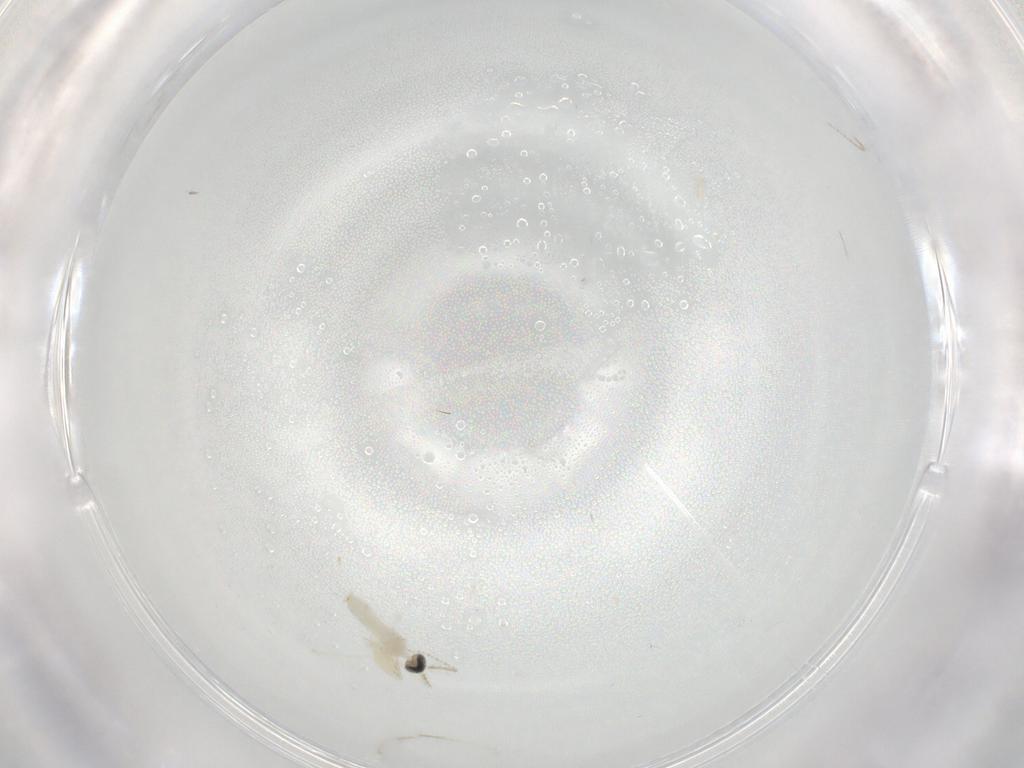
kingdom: Animalia
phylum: Arthropoda
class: Insecta
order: Diptera
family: Cecidomyiidae
